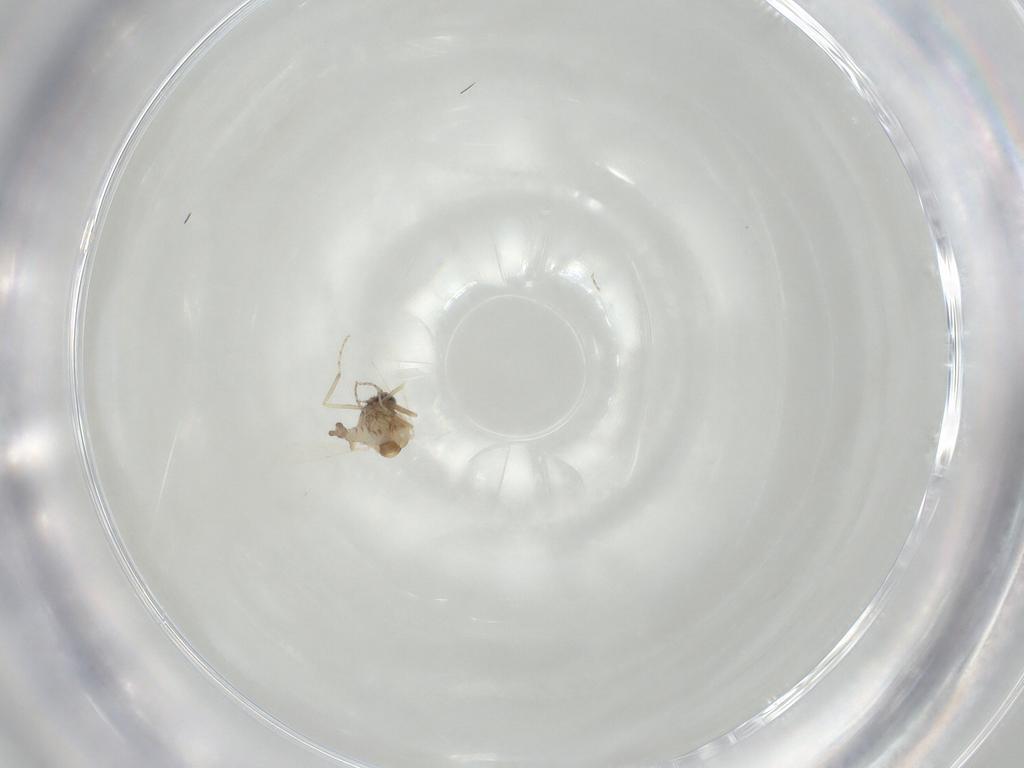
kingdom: Animalia
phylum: Arthropoda
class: Insecta
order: Diptera
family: Ceratopogonidae
